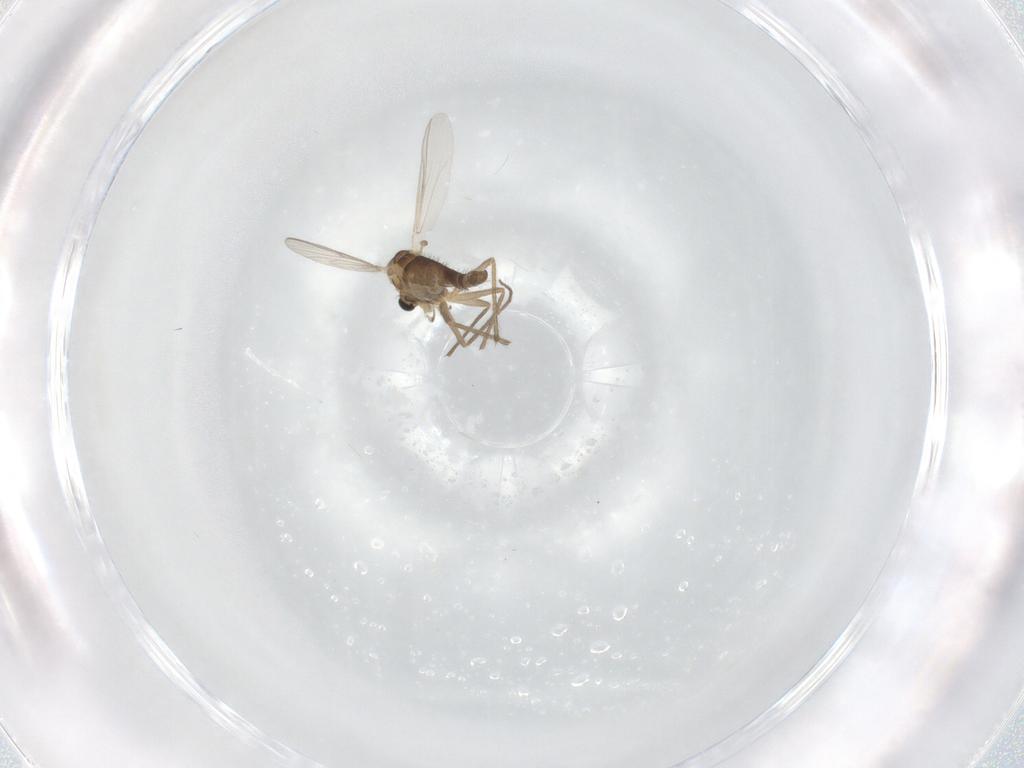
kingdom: Animalia
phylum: Arthropoda
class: Insecta
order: Diptera
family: Chironomidae
